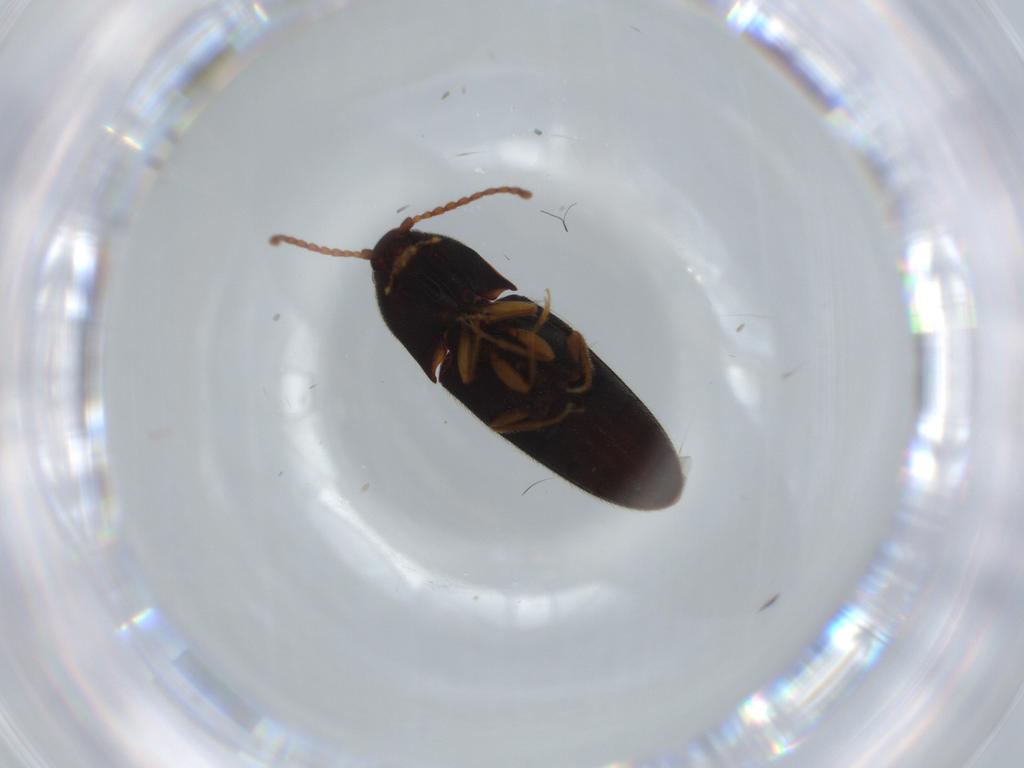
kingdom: Animalia
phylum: Arthropoda
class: Insecta
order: Coleoptera
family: Elateridae
